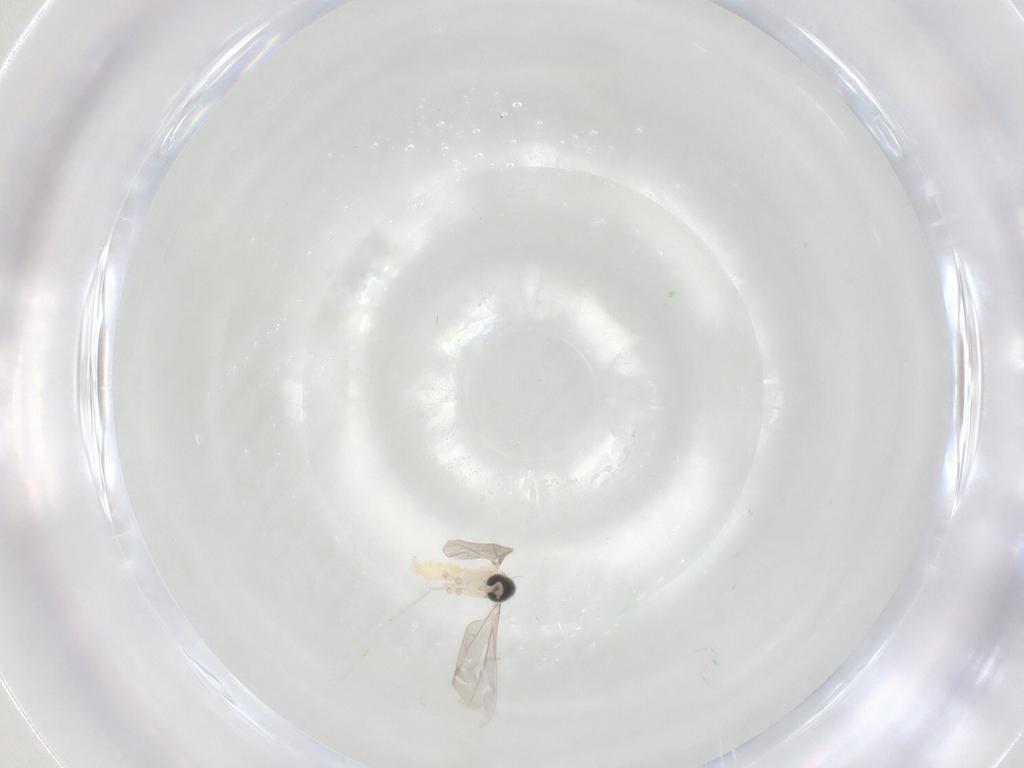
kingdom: Animalia
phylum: Arthropoda
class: Insecta
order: Diptera
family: Cecidomyiidae
